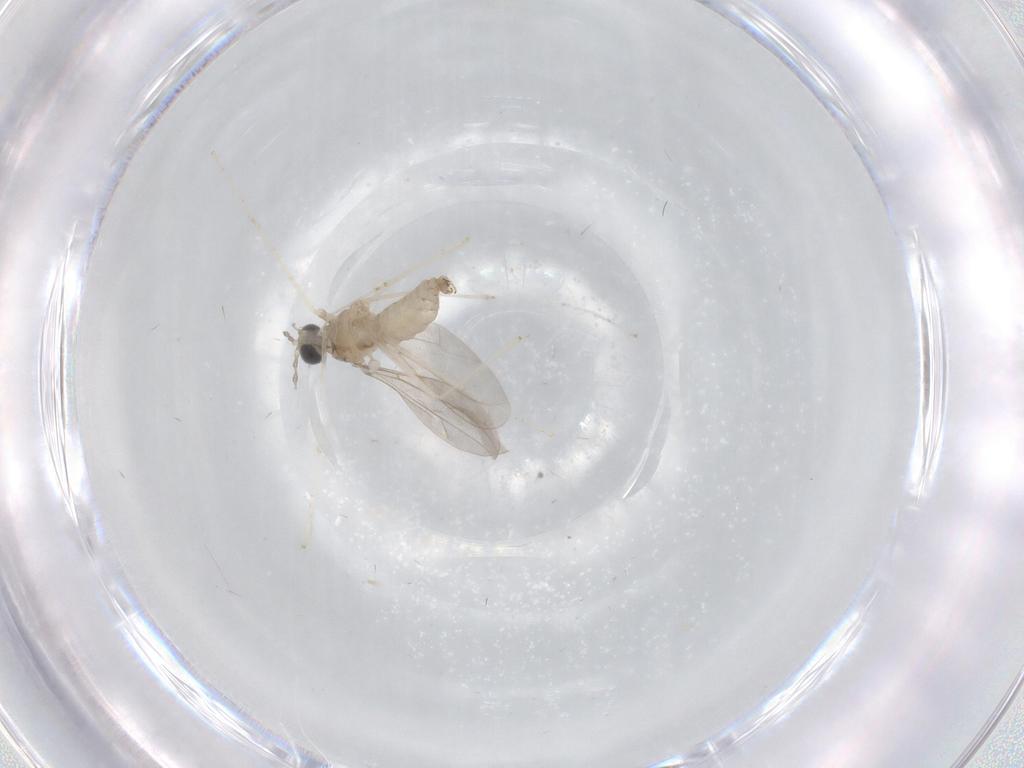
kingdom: Animalia
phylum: Arthropoda
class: Insecta
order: Diptera
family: Cecidomyiidae
